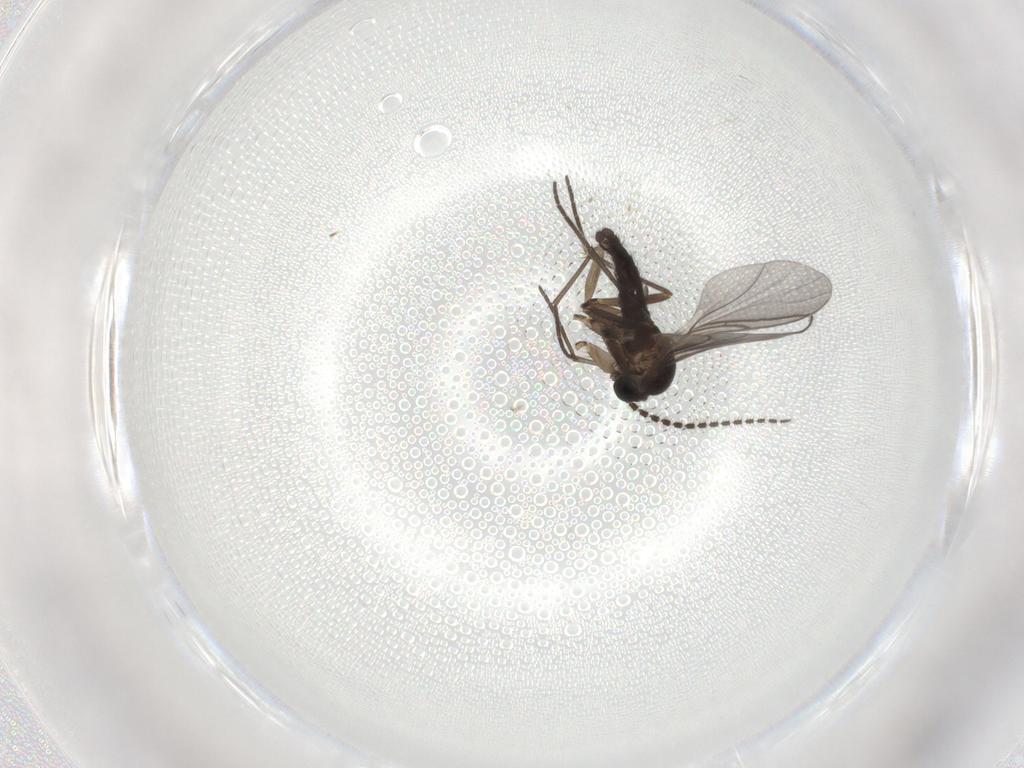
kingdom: Animalia
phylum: Arthropoda
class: Insecta
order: Diptera
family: Sciaridae
